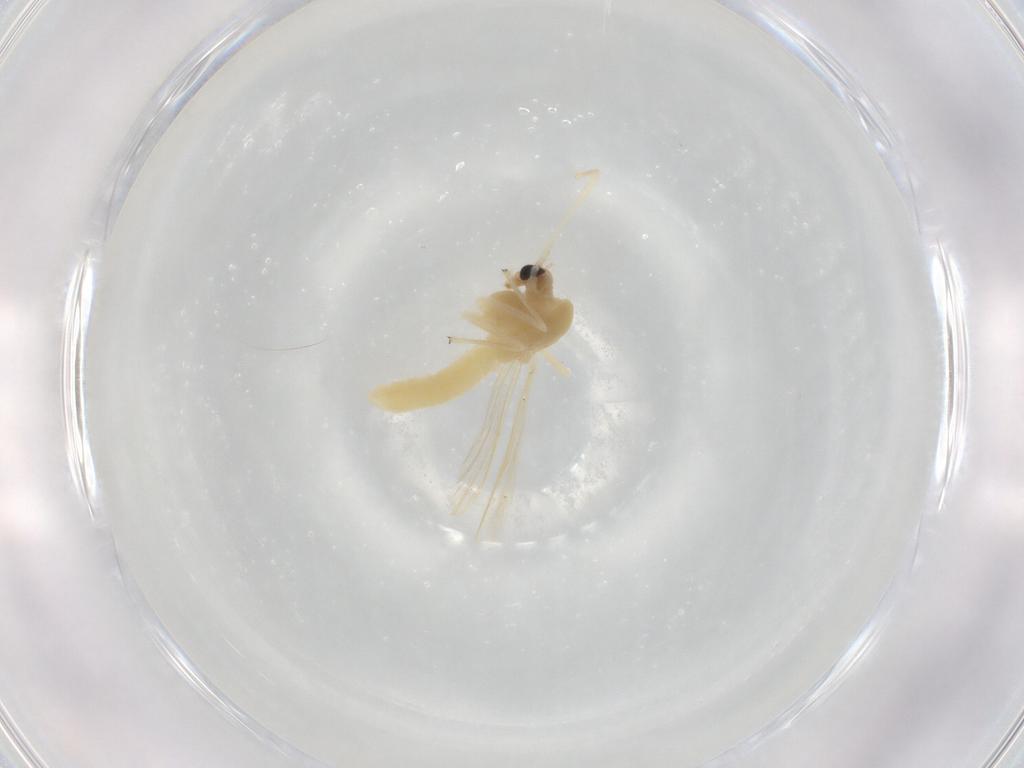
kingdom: Animalia
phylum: Arthropoda
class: Insecta
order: Diptera
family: Chironomidae
